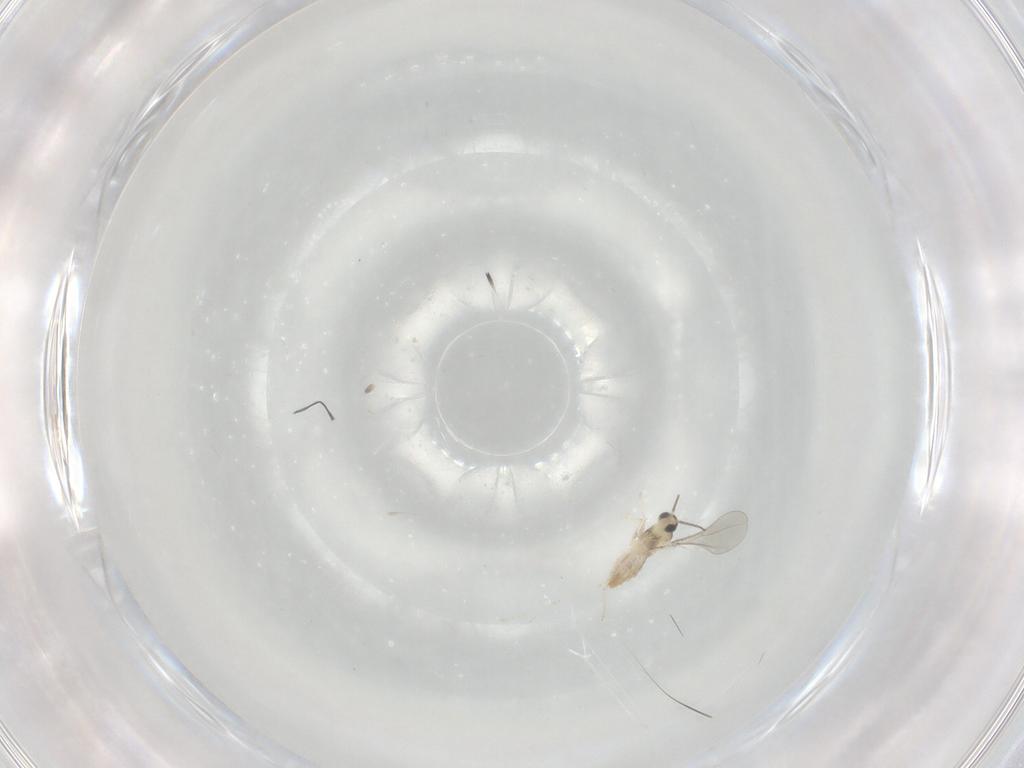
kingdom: Animalia
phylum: Arthropoda
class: Insecta
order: Diptera
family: Cecidomyiidae
